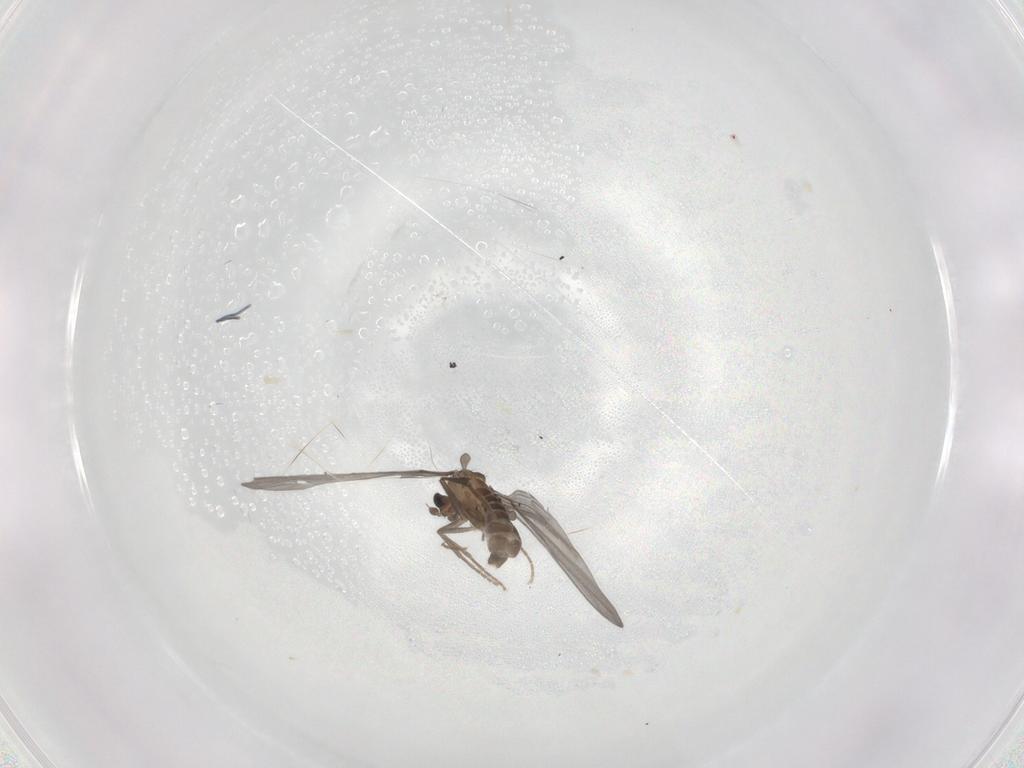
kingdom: Animalia
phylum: Arthropoda
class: Insecta
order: Diptera
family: Phoridae
